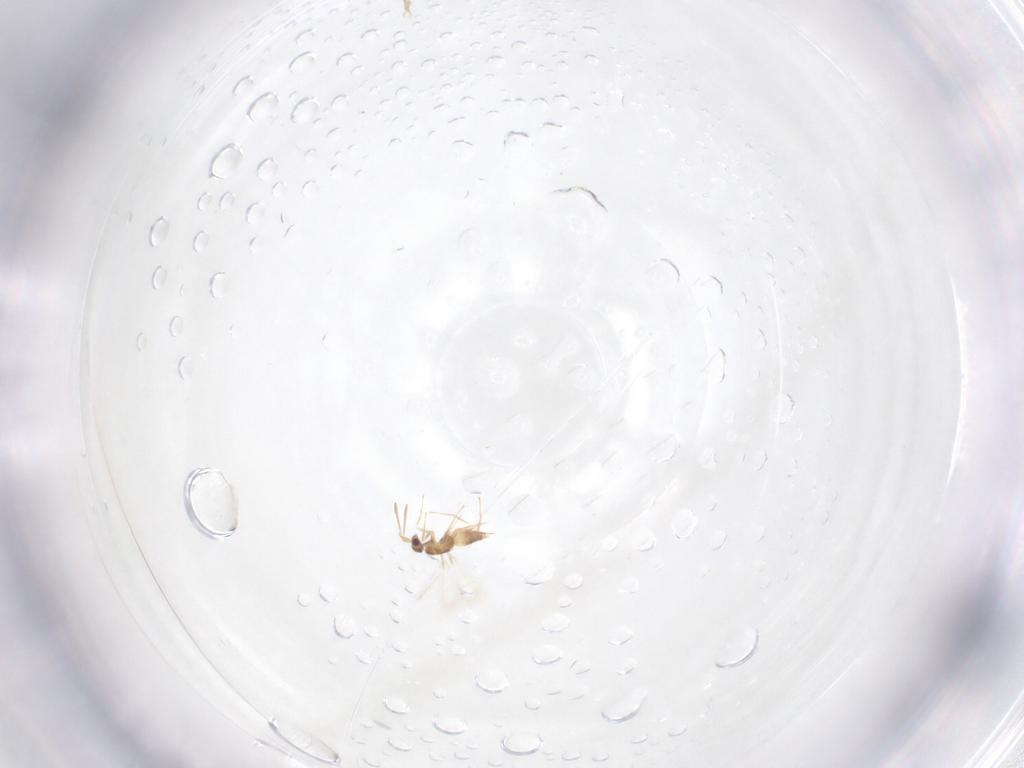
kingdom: Animalia
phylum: Arthropoda
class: Insecta
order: Hymenoptera
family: Mymaridae
